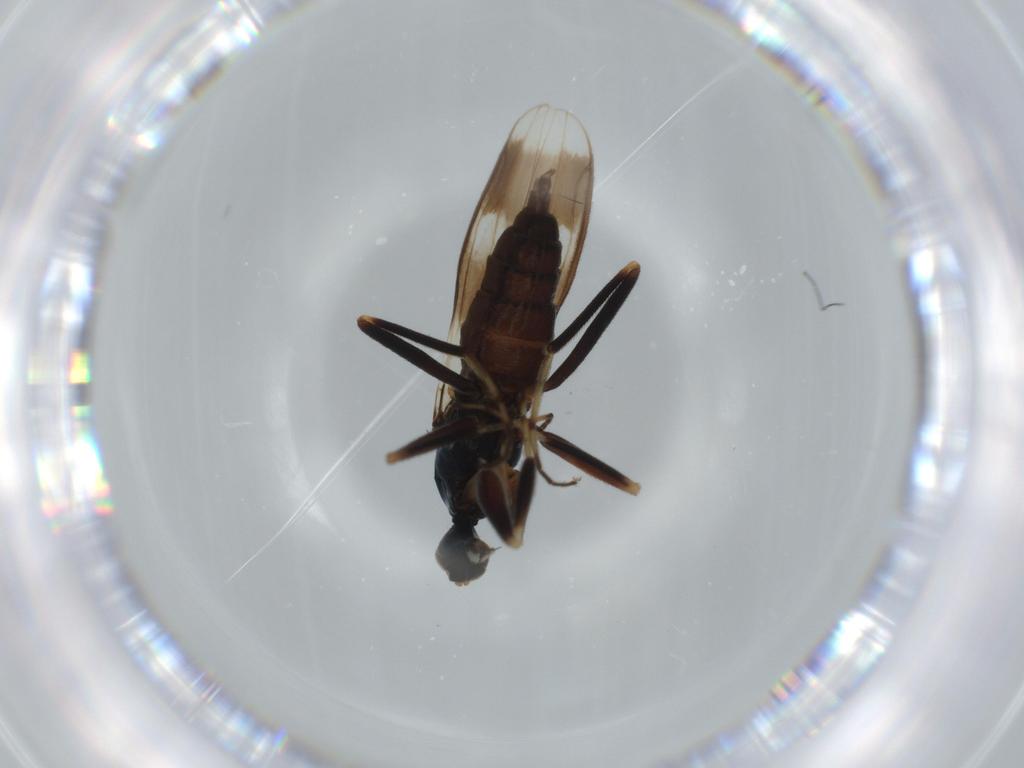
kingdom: Animalia
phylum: Arthropoda
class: Insecta
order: Diptera
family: Hybotidae
